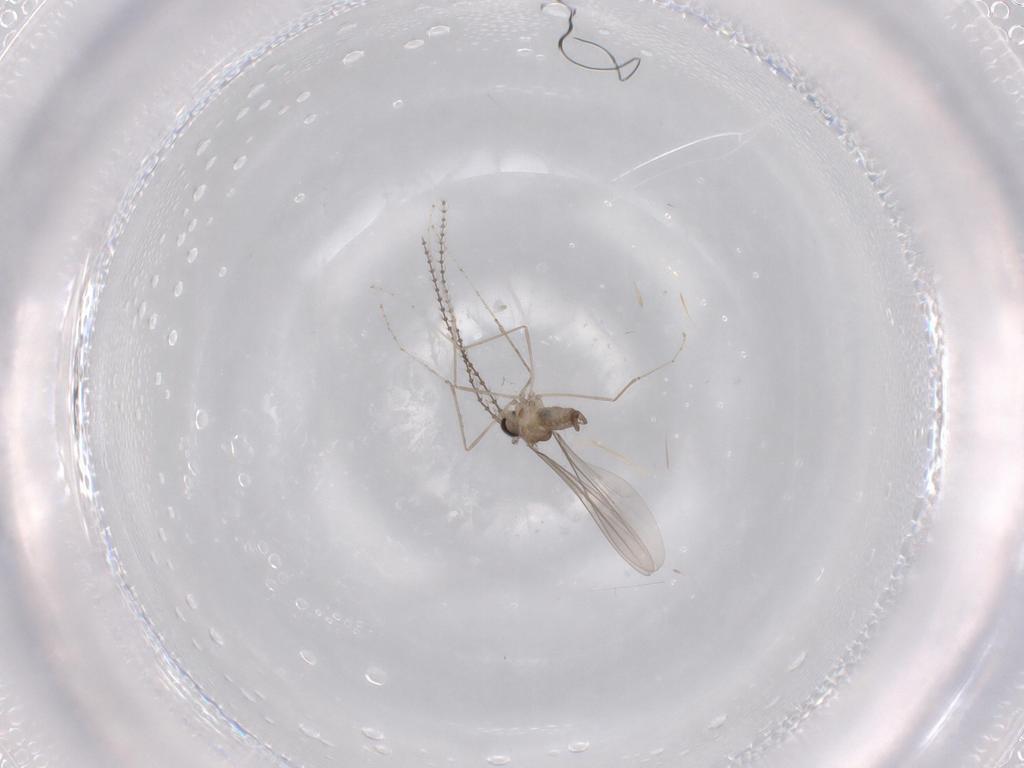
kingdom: Animalia
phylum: Arthropoda
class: Insecta
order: Diptera
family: Cecidomyiidae
